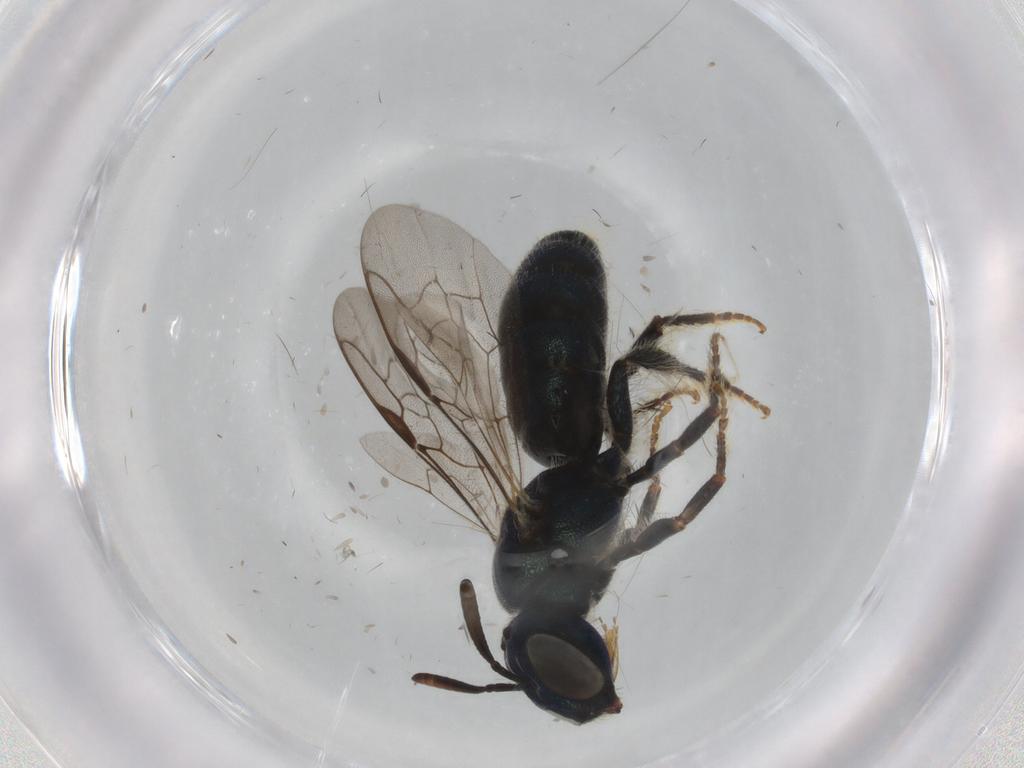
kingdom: Animalia
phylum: Arthropoda
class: Insecta
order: Hymenoptera
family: Apidae
